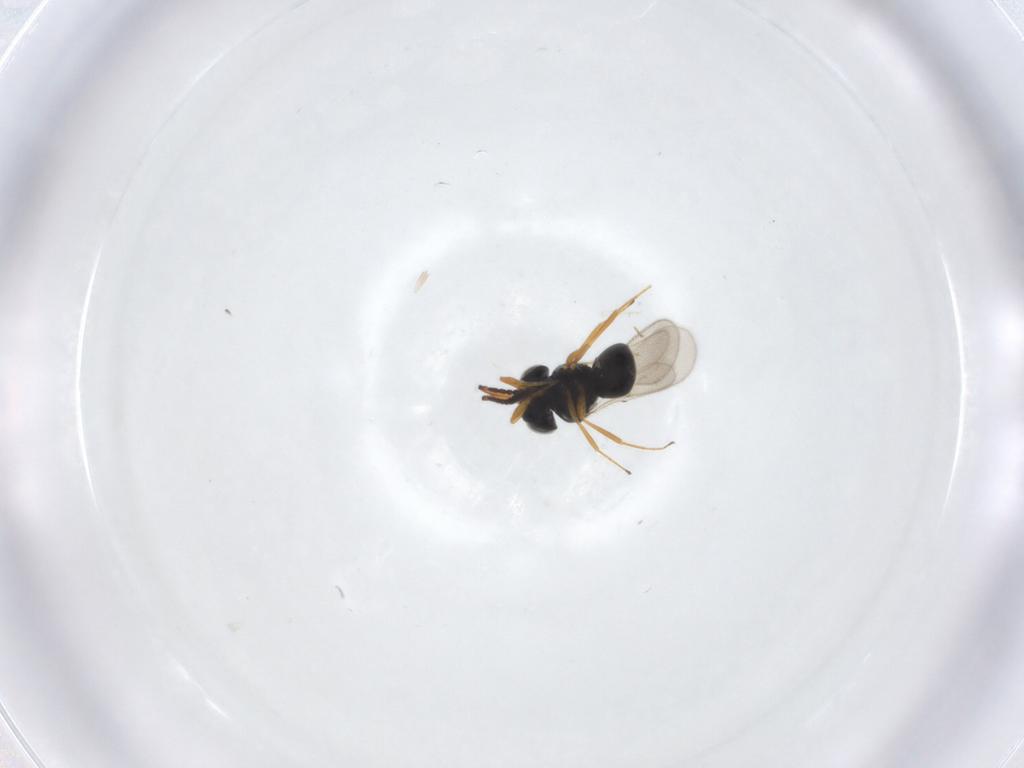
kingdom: Animalia
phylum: Arthropoda
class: Insecta
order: Hymenoptera
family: Scelionidae
